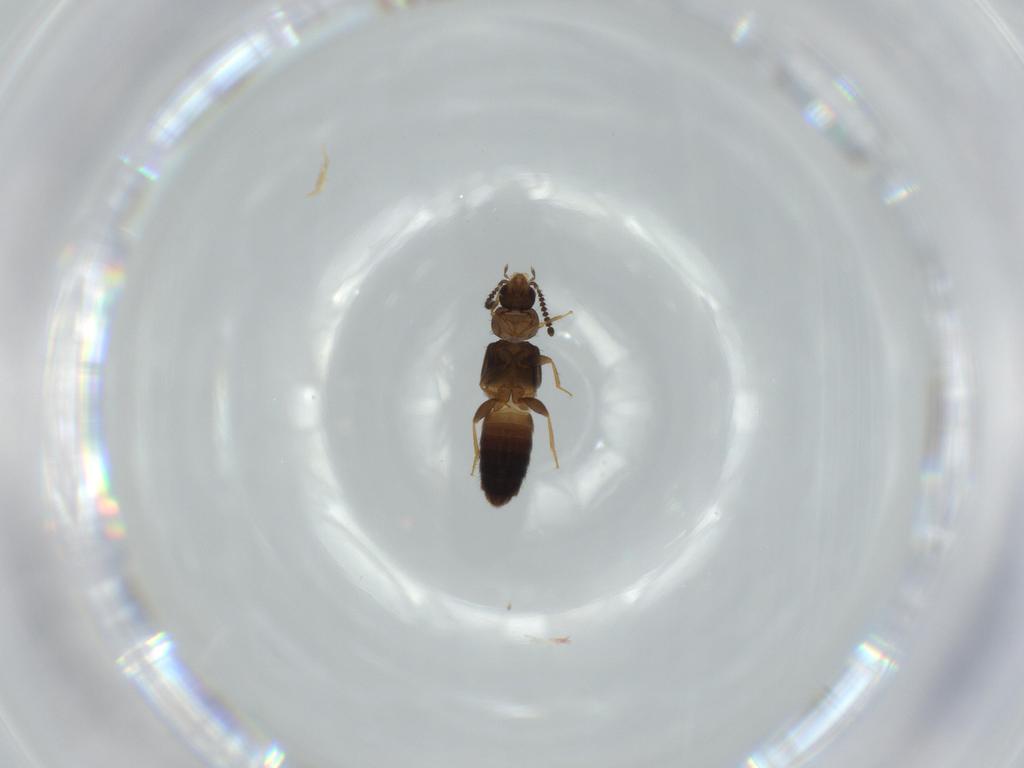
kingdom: Animalia
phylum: Arthropoda
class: Insecta
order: Coleoptera
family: Staphylinidae
